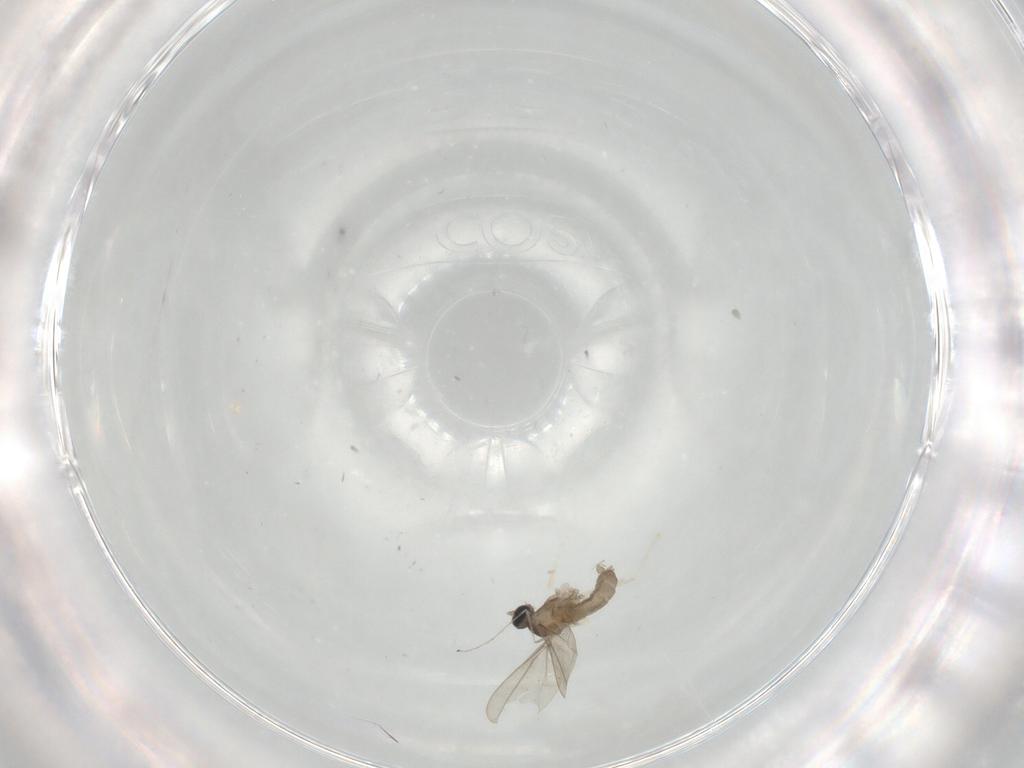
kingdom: Animalia
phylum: Arthropoda
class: Insecta
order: Diptera
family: Cecidomyiidae
